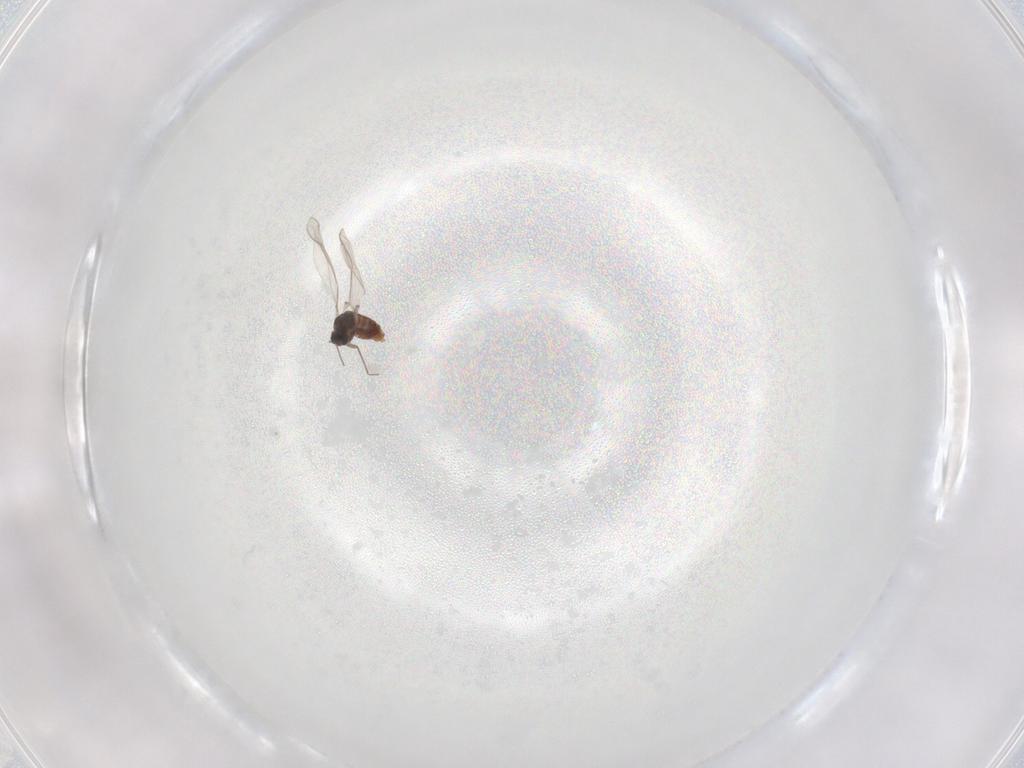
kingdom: Animalia
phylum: Arthropoda
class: Insecta
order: Diptera
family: Chironomidae
